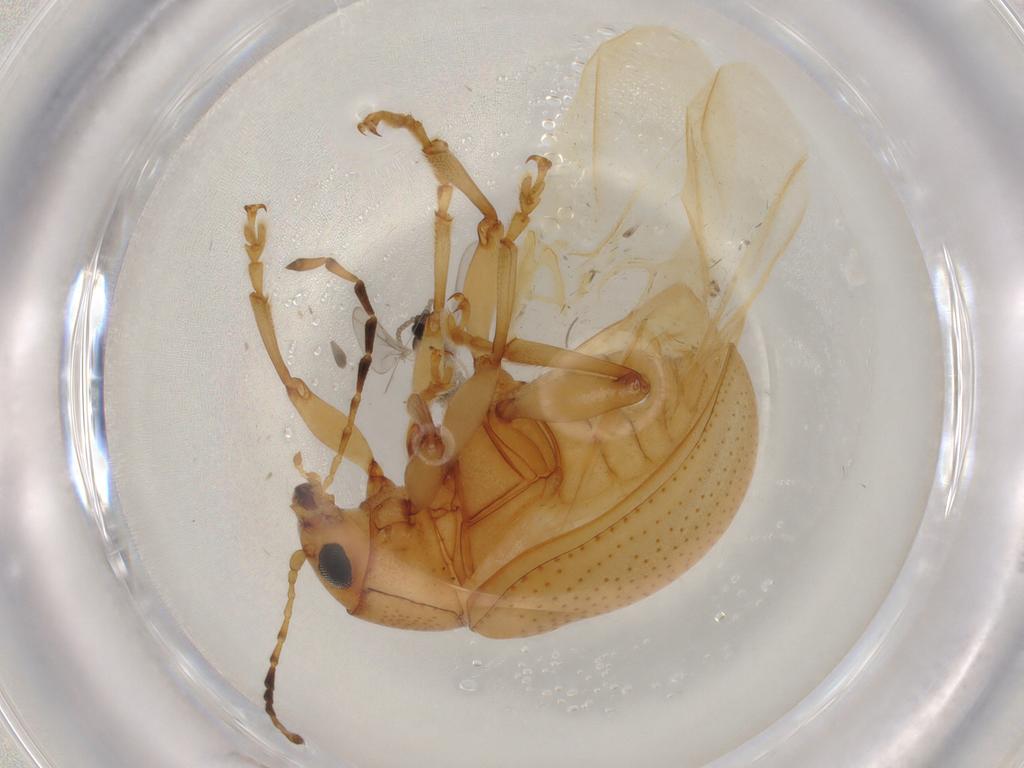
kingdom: Animalia
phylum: Arthropoda
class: Insecta
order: Coleoptera
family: Chrysomelidae
